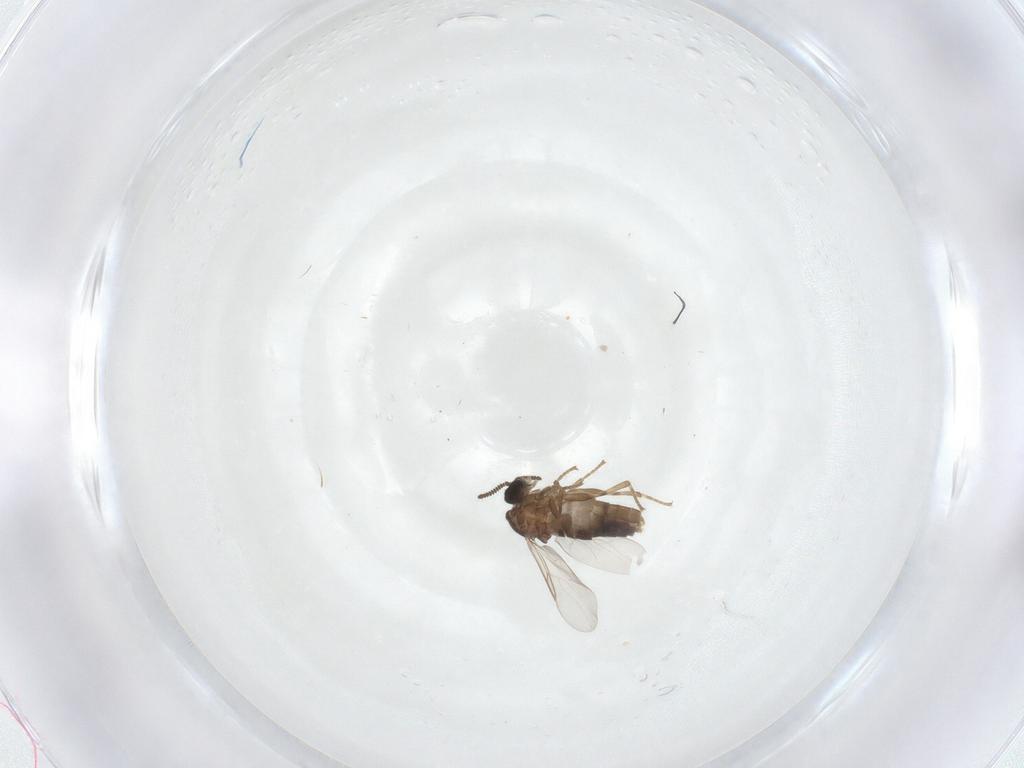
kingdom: Animalia
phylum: Arthropoda
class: Insecta
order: Diptera
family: Scatopsidae
